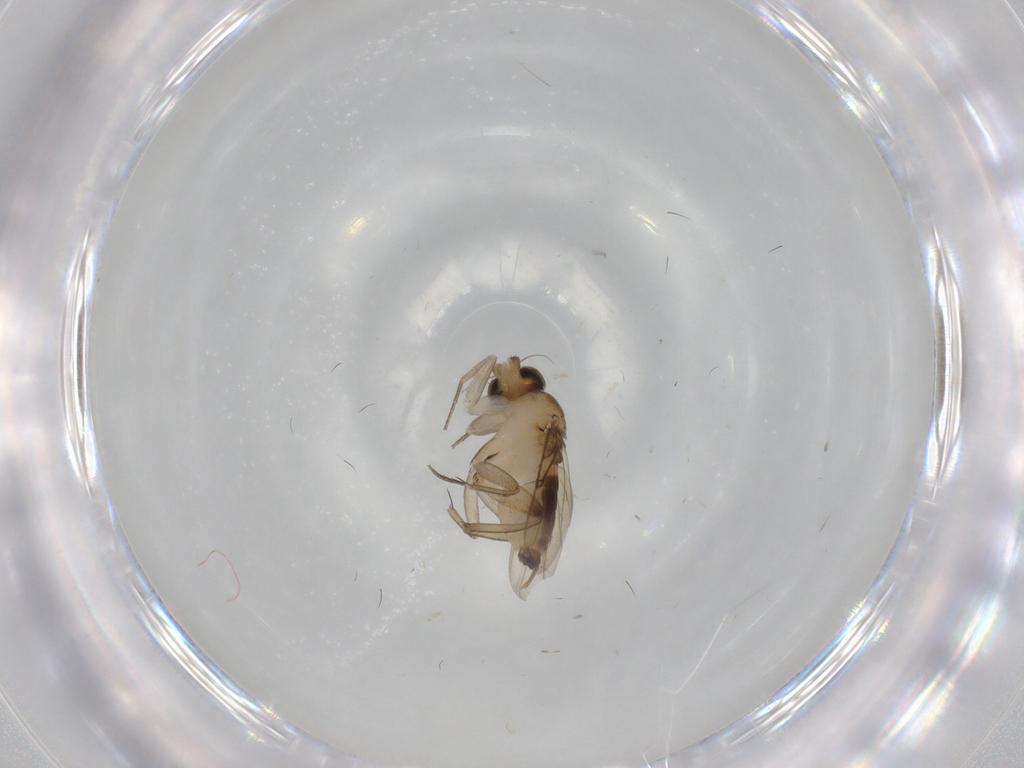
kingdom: Animalia
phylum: Arthropoda
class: Insecta
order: Diptera
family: Phoridae
